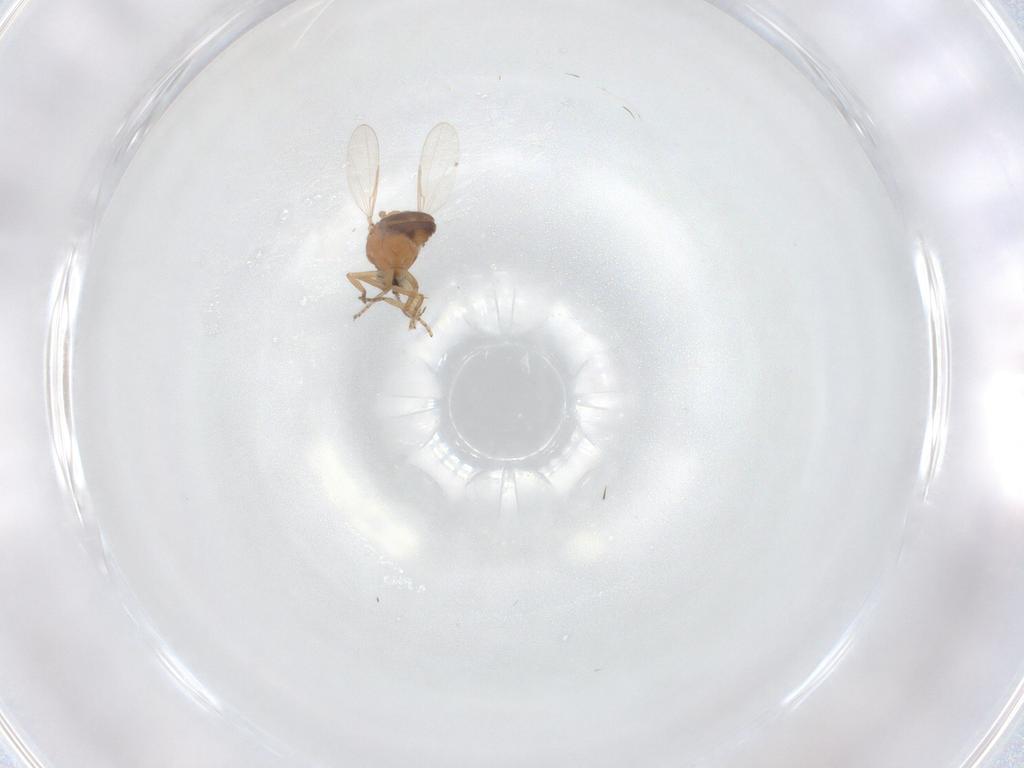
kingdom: Animalia
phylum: Arthropoda
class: Insecta
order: Diptera
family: Ceratopogonidae
